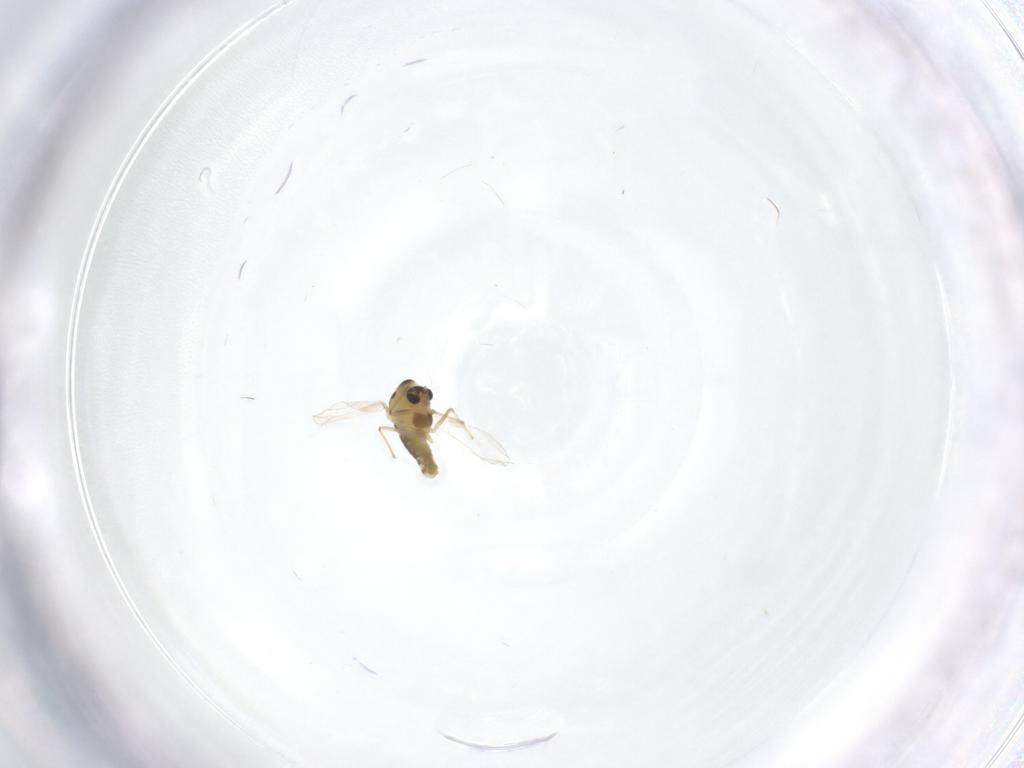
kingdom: Animalia
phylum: Arthropoda
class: Insecta
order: Diptera
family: Chironomidae
